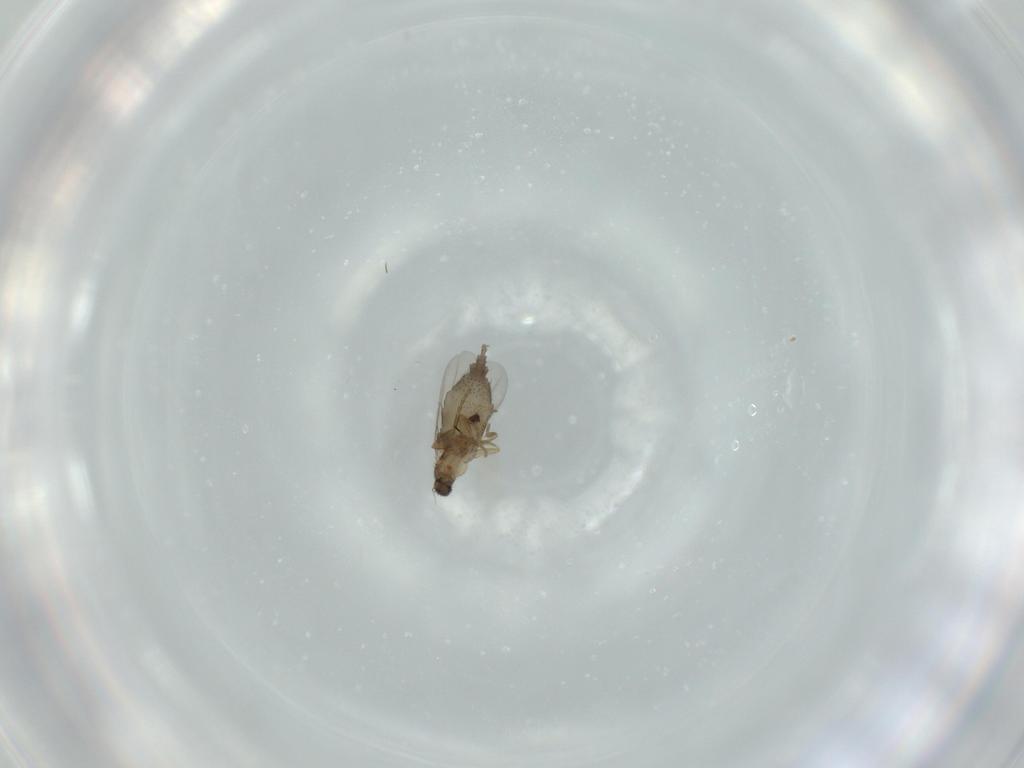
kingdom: Animalia
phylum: Arthropoda
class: Insecta
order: Diptera
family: Phoridae
